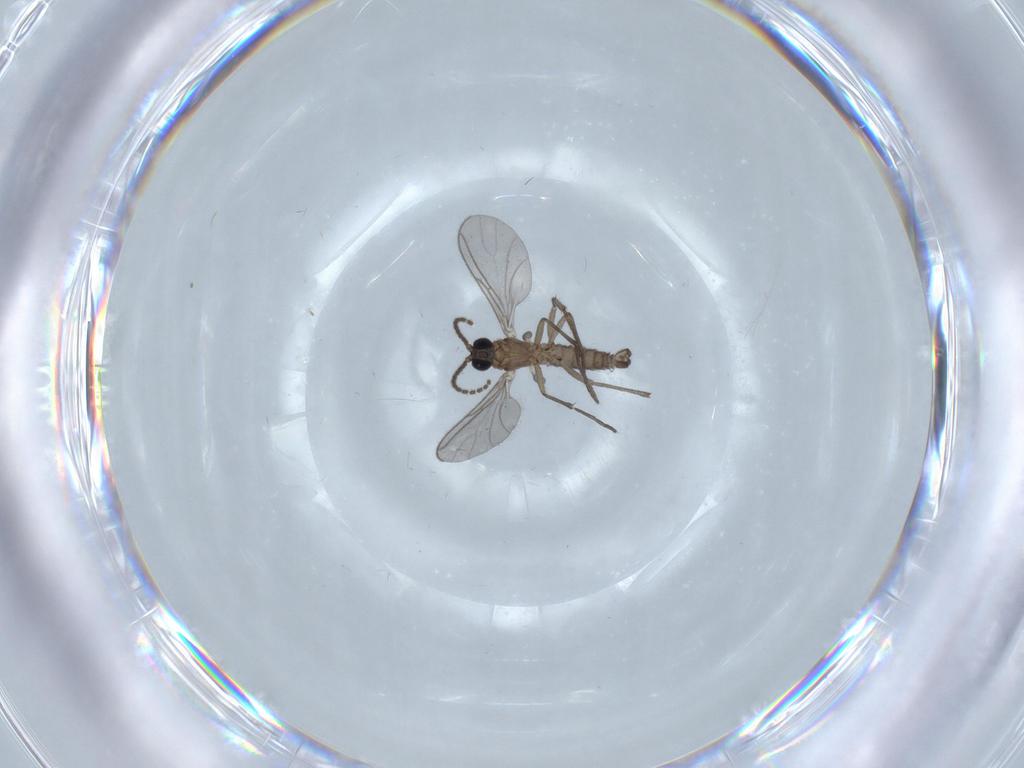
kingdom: Animalia
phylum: Arthropoda
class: Insecta
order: Diptera
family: Sciaridae
